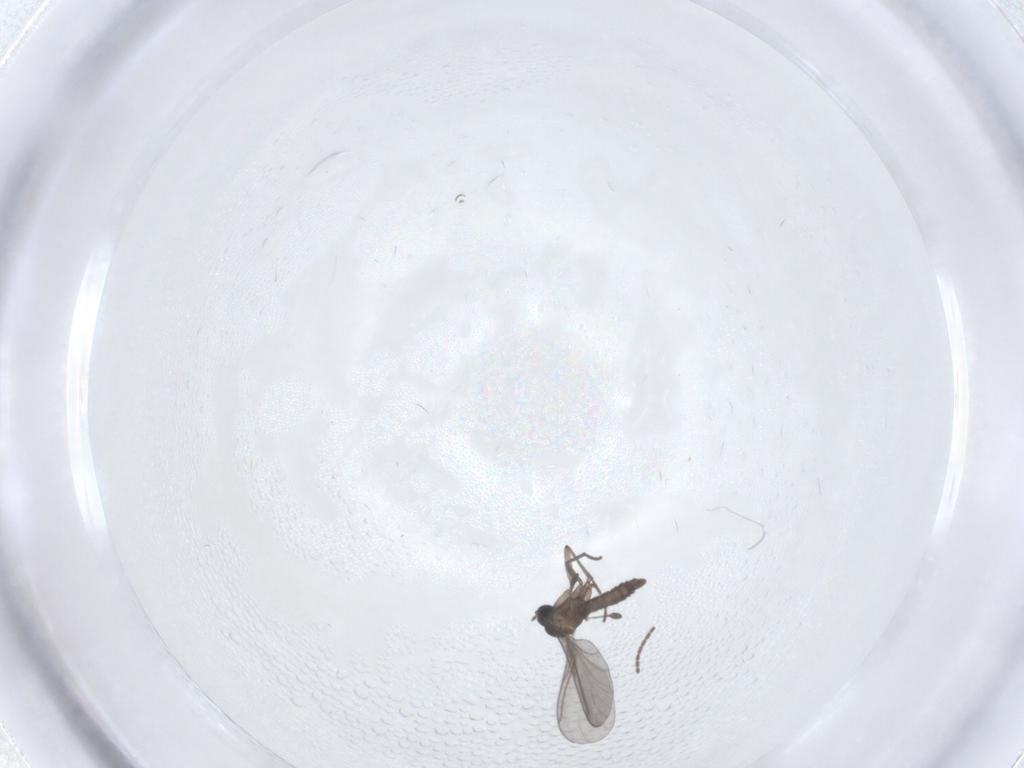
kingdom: Animalia
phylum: Arthropoda
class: Insecta
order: Diptera
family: Sciaridae
